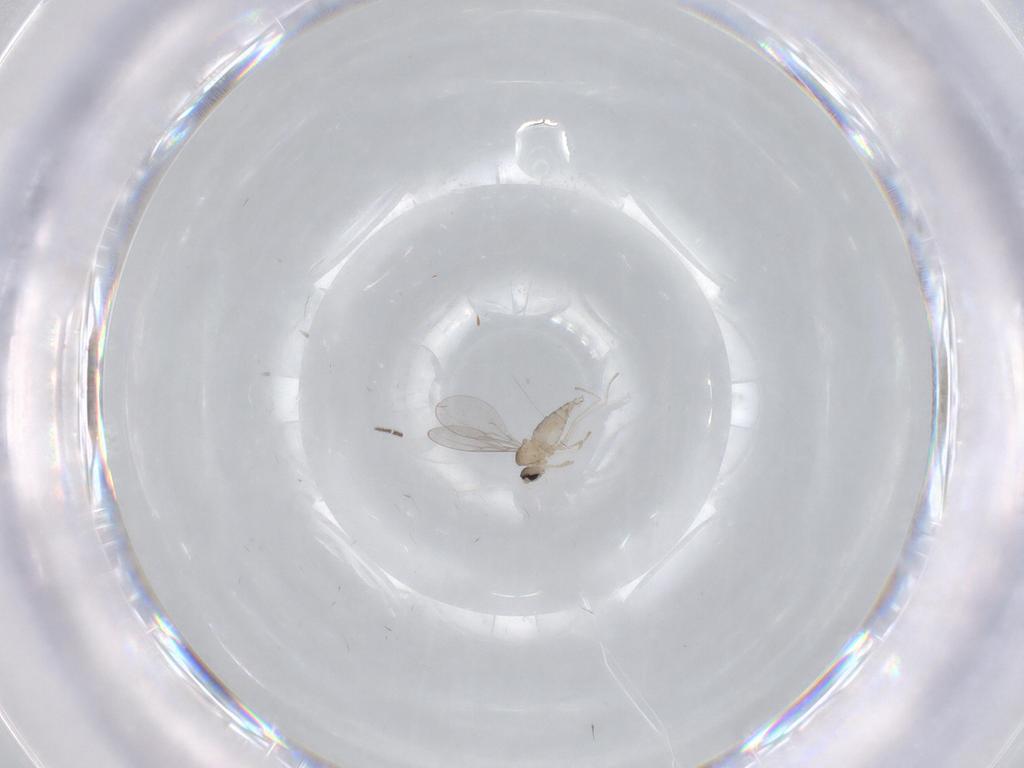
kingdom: Animalia
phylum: Arthropoda
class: Insecta
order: Diptera
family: Sciaridae
